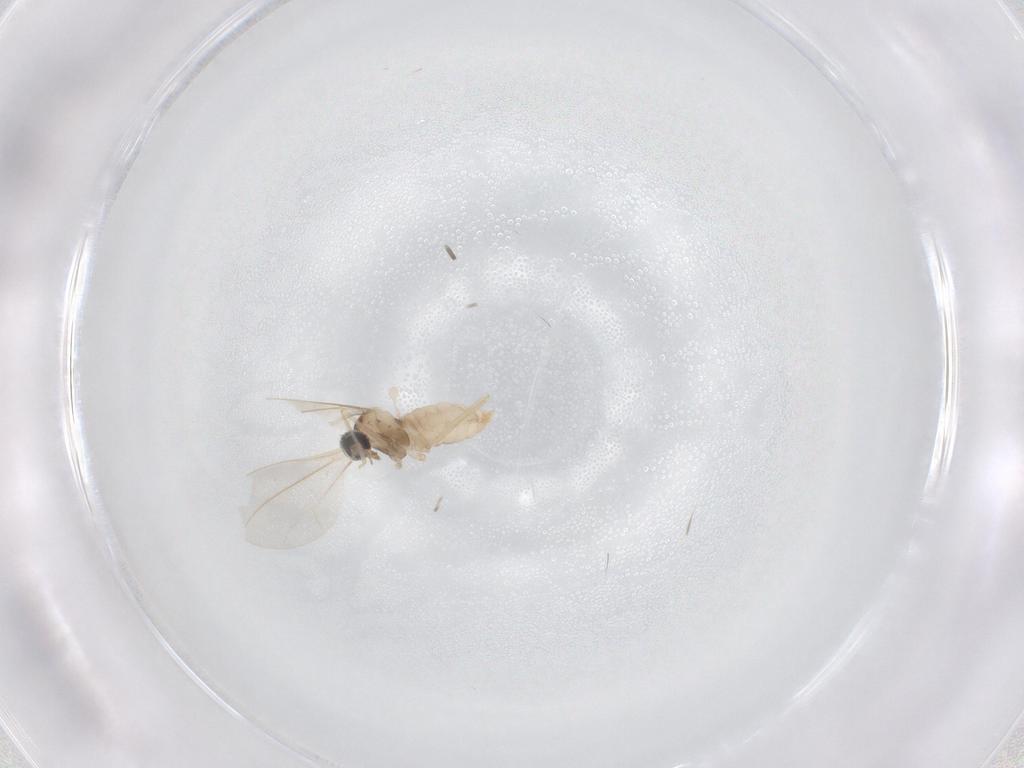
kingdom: Animalia
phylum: Arthropoda
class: Insecta
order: Diptera
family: Cecidomyiidae
